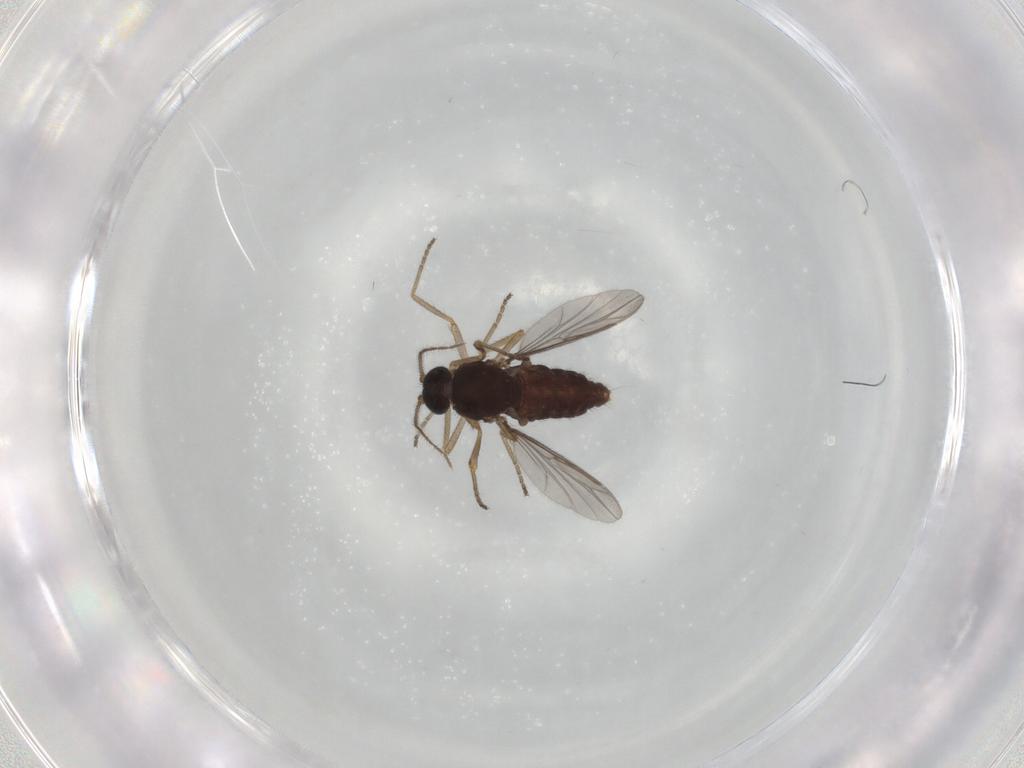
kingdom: Animalia
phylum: Arthropoda
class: Insecta
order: Diptera
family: Ceratopogonidae
